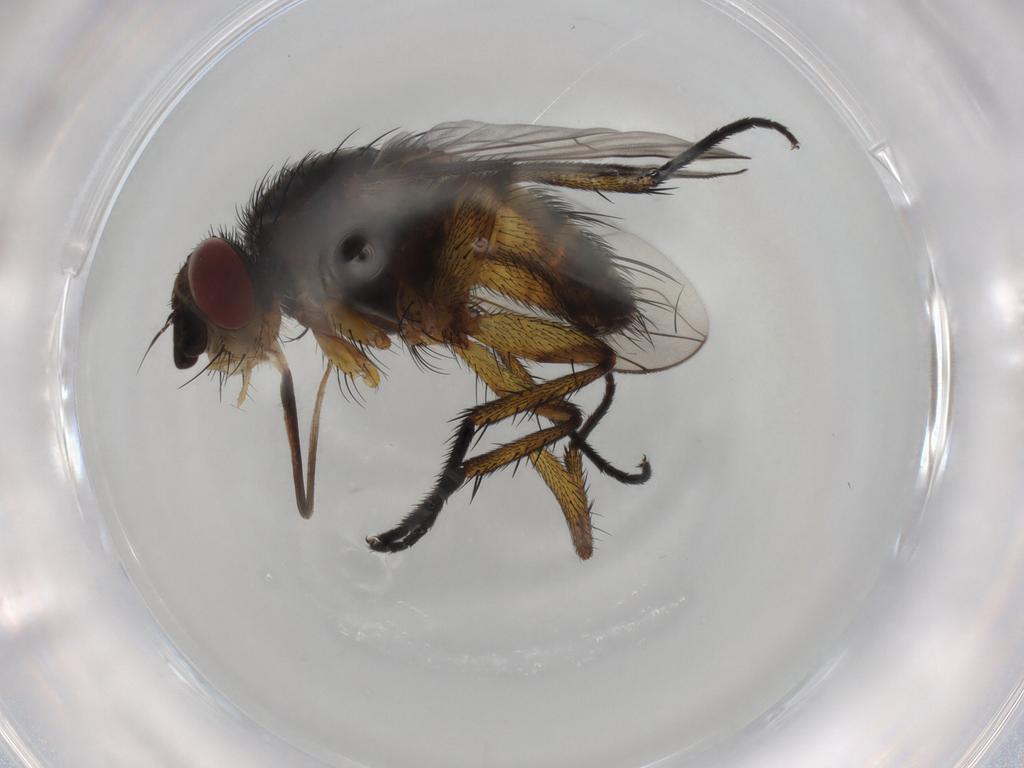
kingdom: Animalia
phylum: Arthropoda
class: Insecta
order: Diptera
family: Tachinidae
